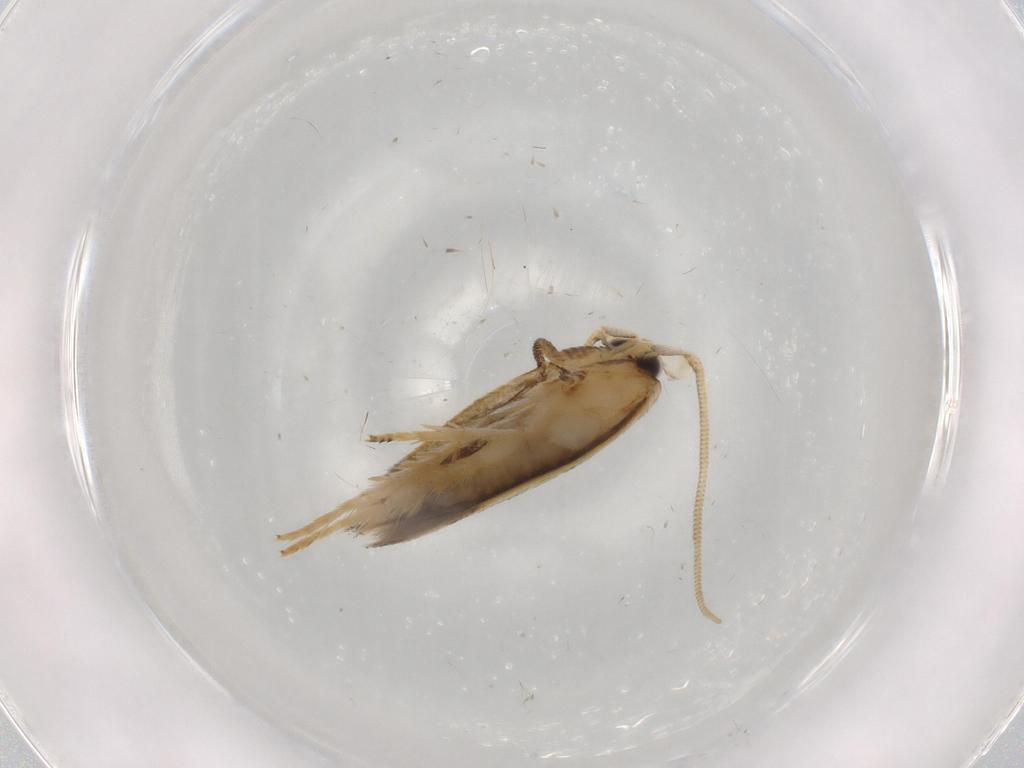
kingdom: Animalia
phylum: Arthropoda
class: Insecta
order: Lepidoptera
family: Opostegidae
